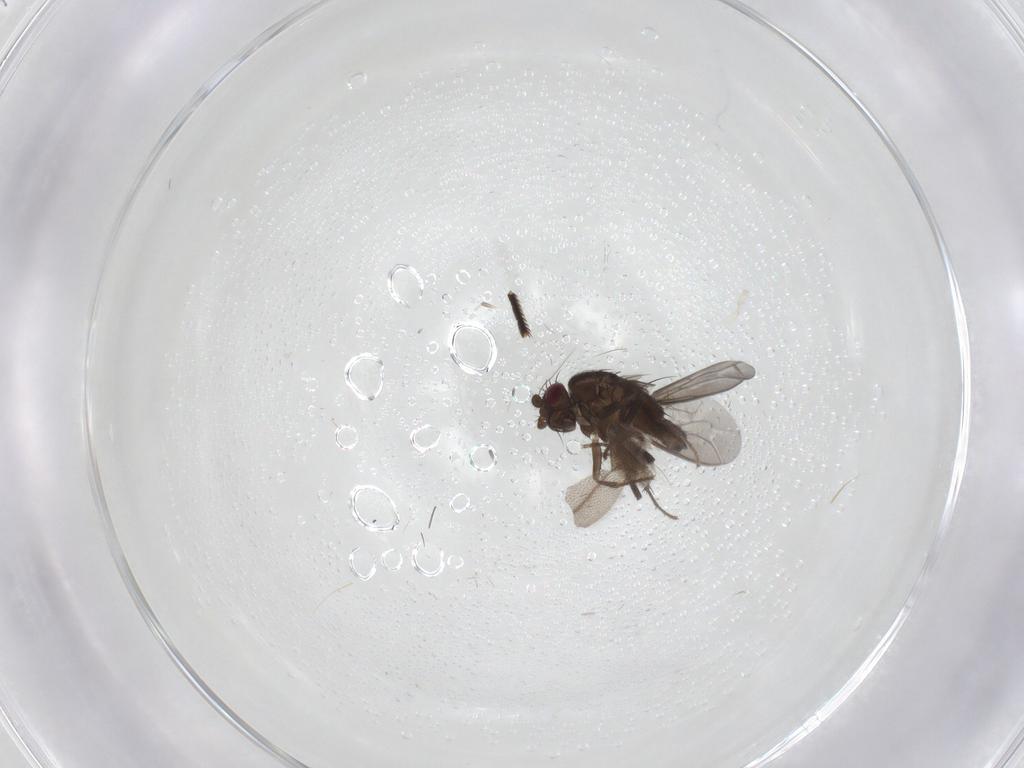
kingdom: Animalia
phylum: Arthropoda
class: Insecta
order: Diptera
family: Sphaeroceridae
